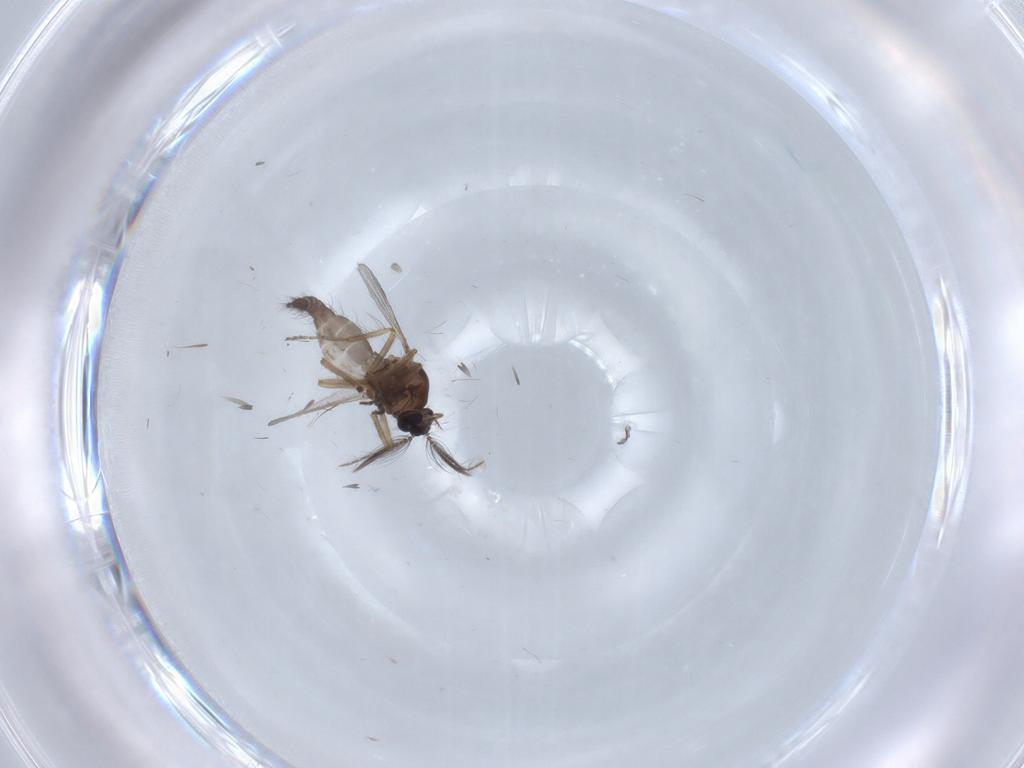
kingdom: Animalia
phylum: Arthropoda
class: Insecta
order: Diptera
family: Ceratopogonidae
